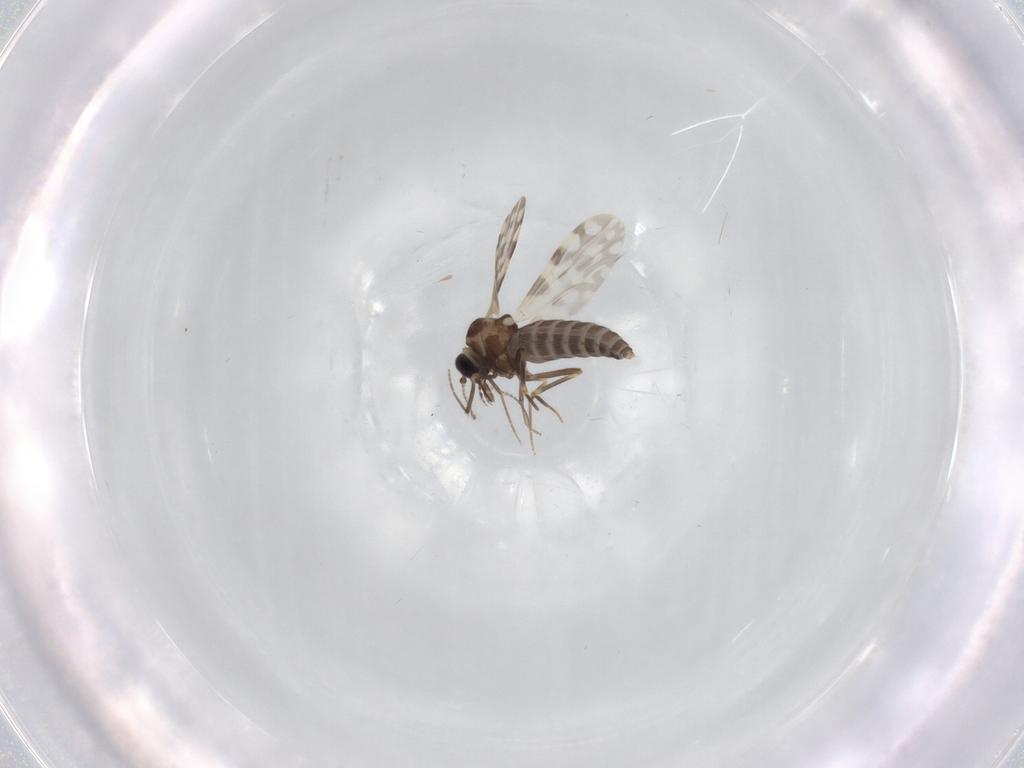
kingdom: Animalia
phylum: Arthropoda
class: Insecta
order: Diptera
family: Ceratopogonidae
